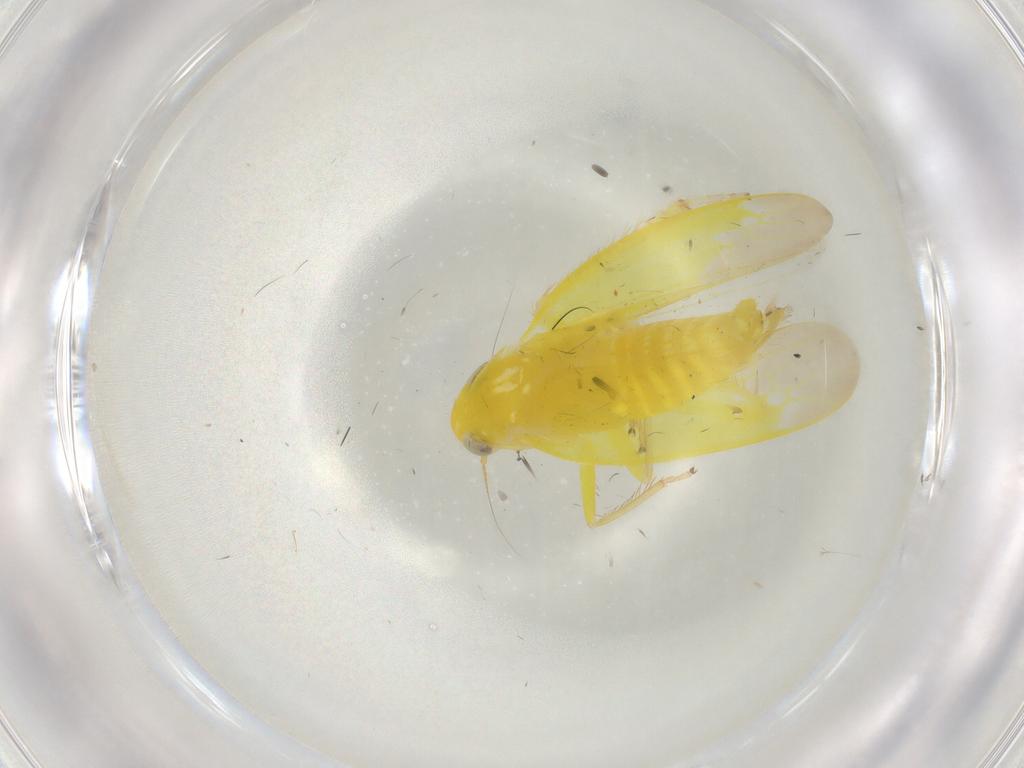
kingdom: Animalia
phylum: Arthropoda
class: Insecta
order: Hemiptera
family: Cicadellidae
